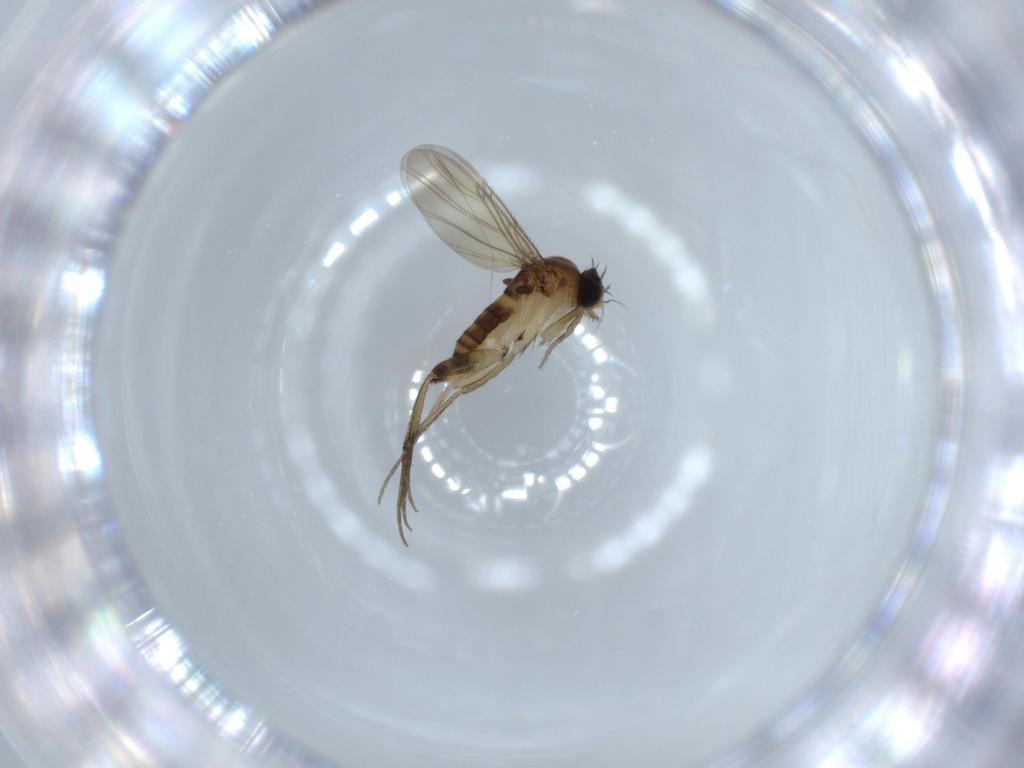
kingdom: Animalia
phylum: Arthropoda
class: Insecta
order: Diptera
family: Phoridae
